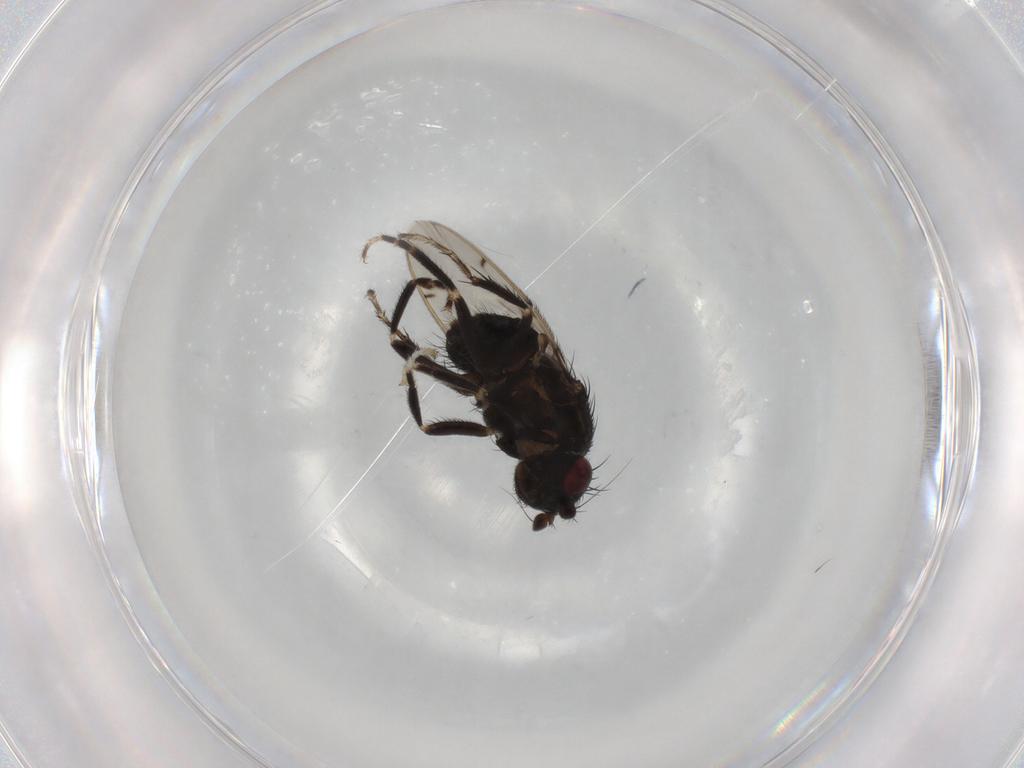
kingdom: Animalia
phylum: Arthropoda
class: Insecta
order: Diptera
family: Sphaeroceridae
